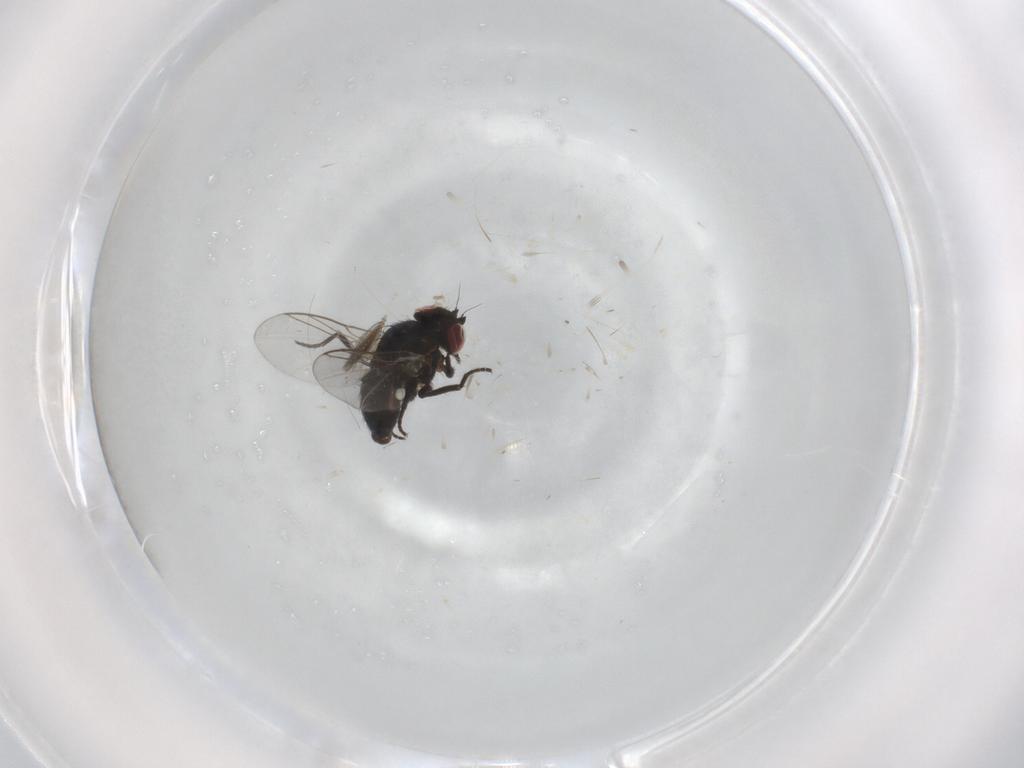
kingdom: Animalia
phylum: Arthropoda
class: Insecta
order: Diptera
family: Agromyzidae
